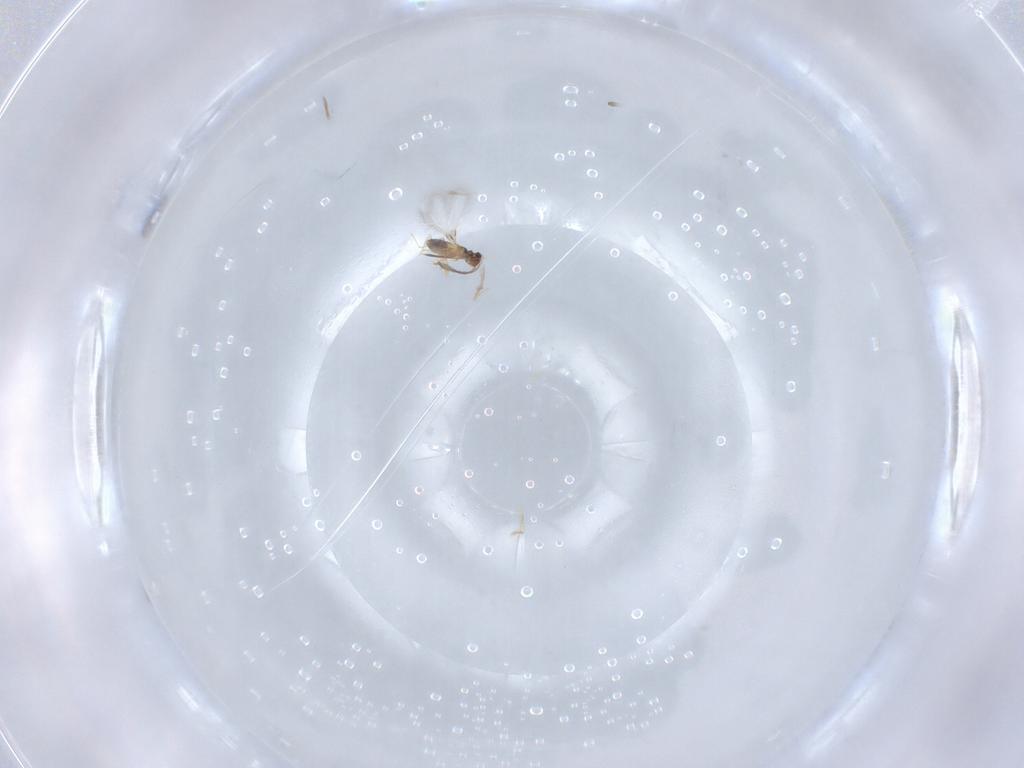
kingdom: Animalia
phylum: Arthropoda
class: Insecta
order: Hymenoptera
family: Mymaridae
